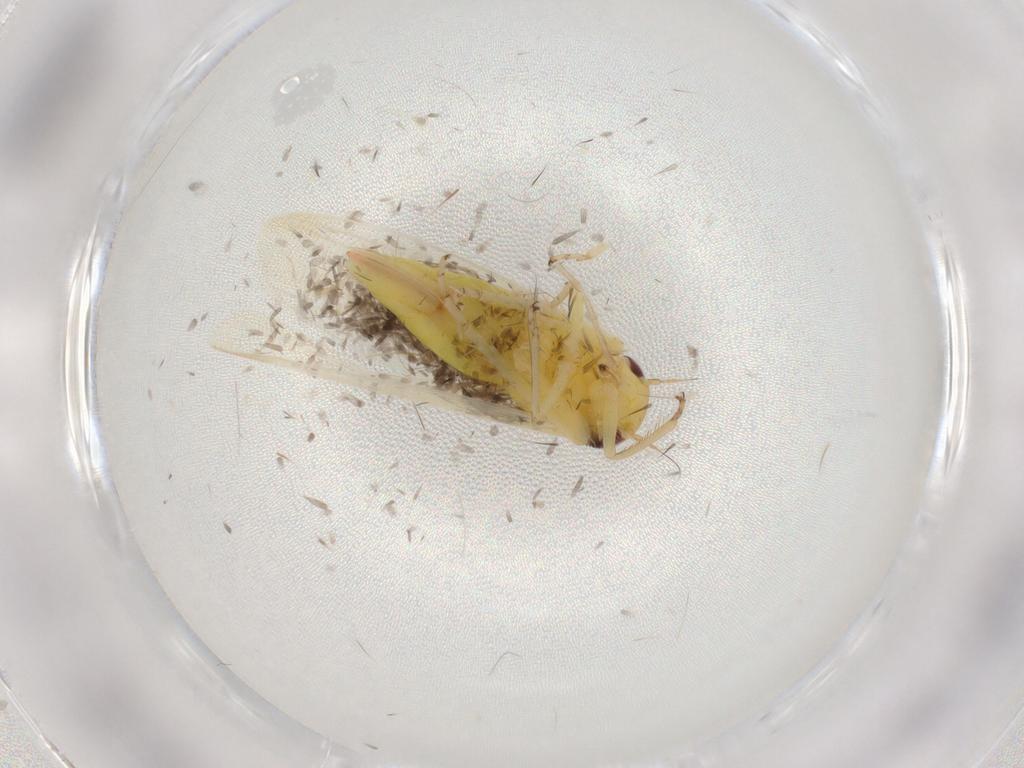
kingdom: Animalia
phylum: Arthropoda
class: Insecta
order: Hemiptera
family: Cicadellidae
